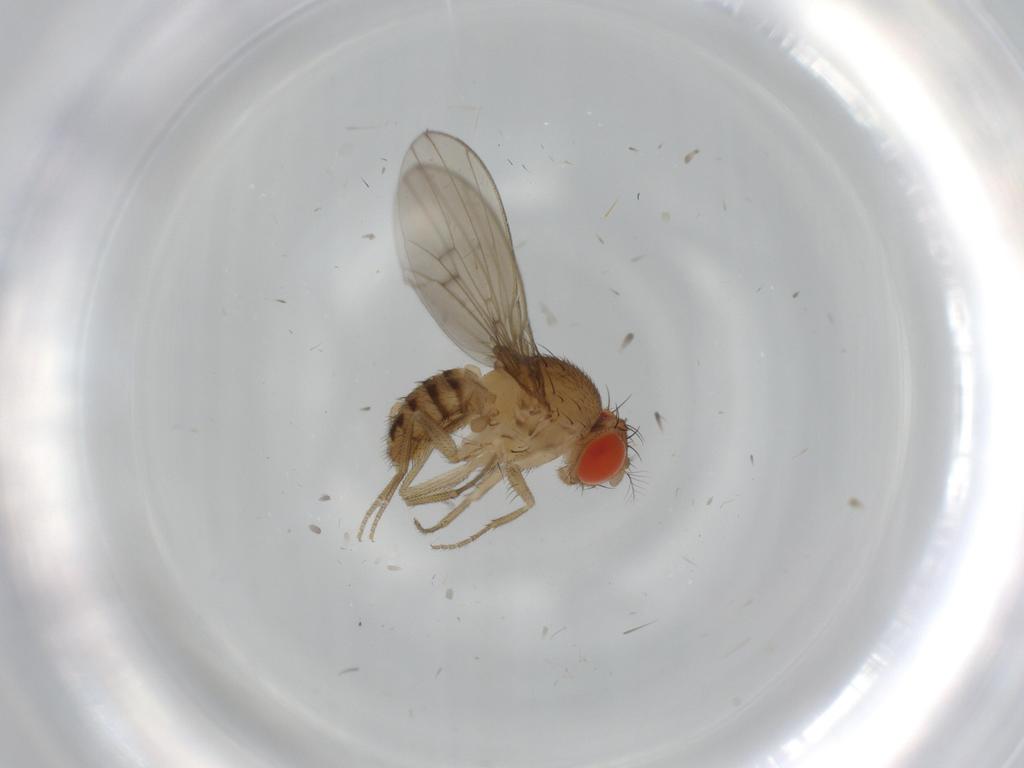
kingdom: Animalia
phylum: Arthropoda
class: Insecta
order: Diptera
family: Drosophilidae
